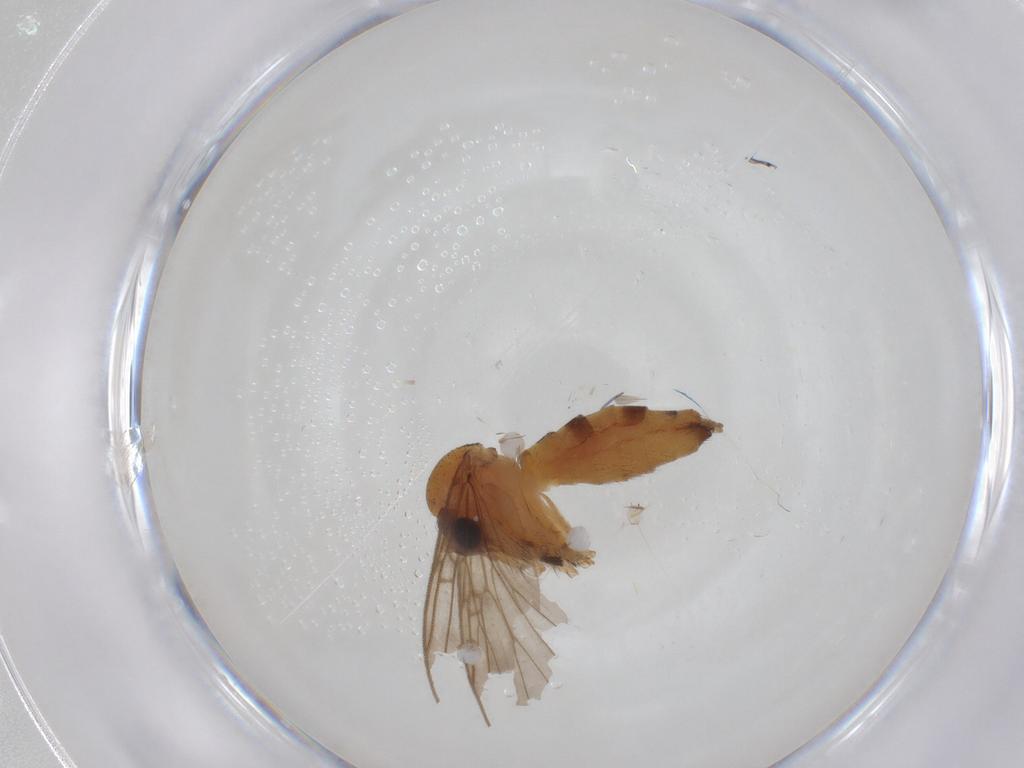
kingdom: Animalia
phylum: Arthropoda
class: Insecta
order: Diptera
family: Mycetophilidae
